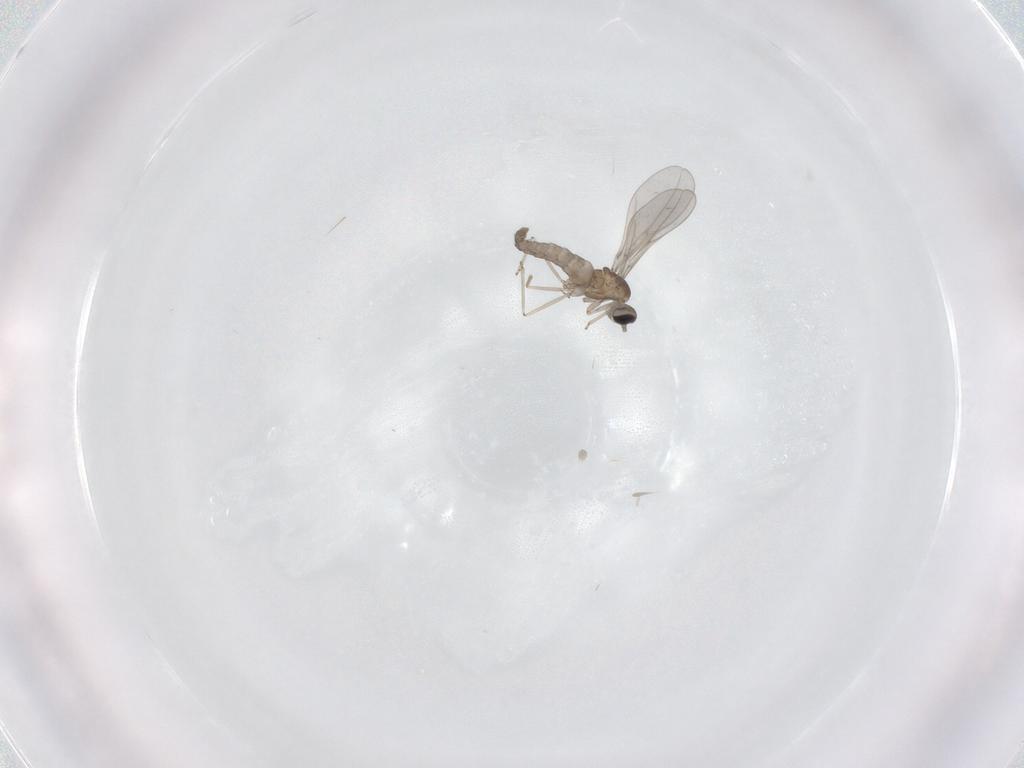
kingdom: Animalia
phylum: Arthropoda
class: Insecta
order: Diptera
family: Cecidomyiidae
